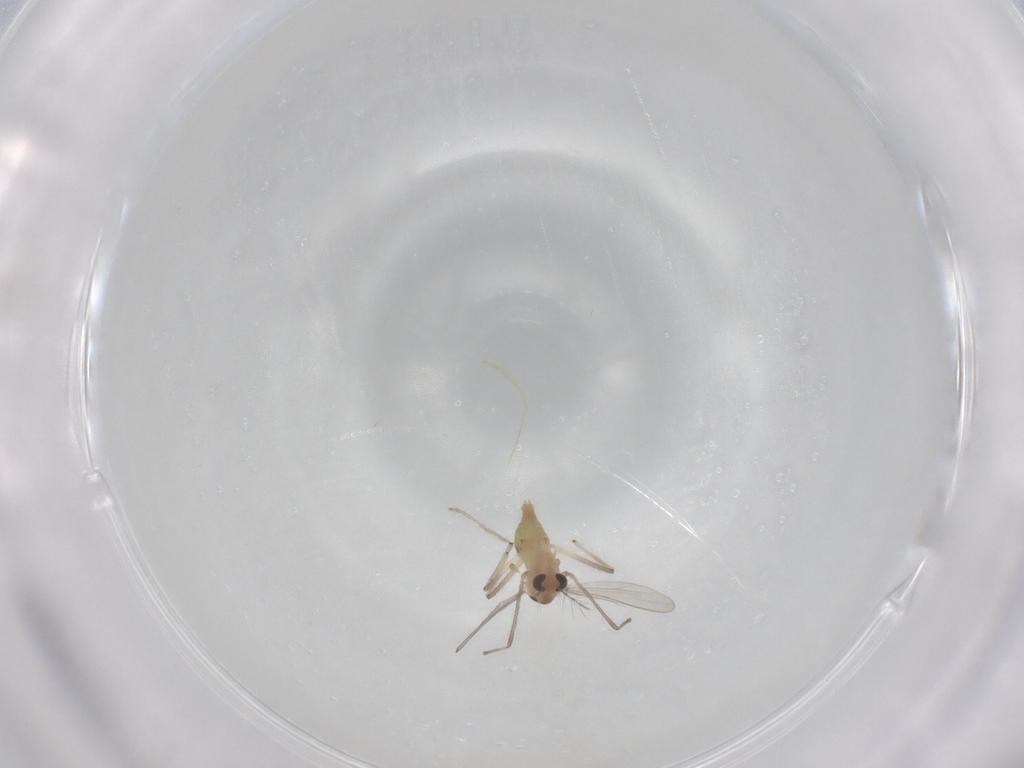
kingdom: Animalia
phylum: Arthropoda
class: Insecta
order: Diptera
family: Chironomidae
